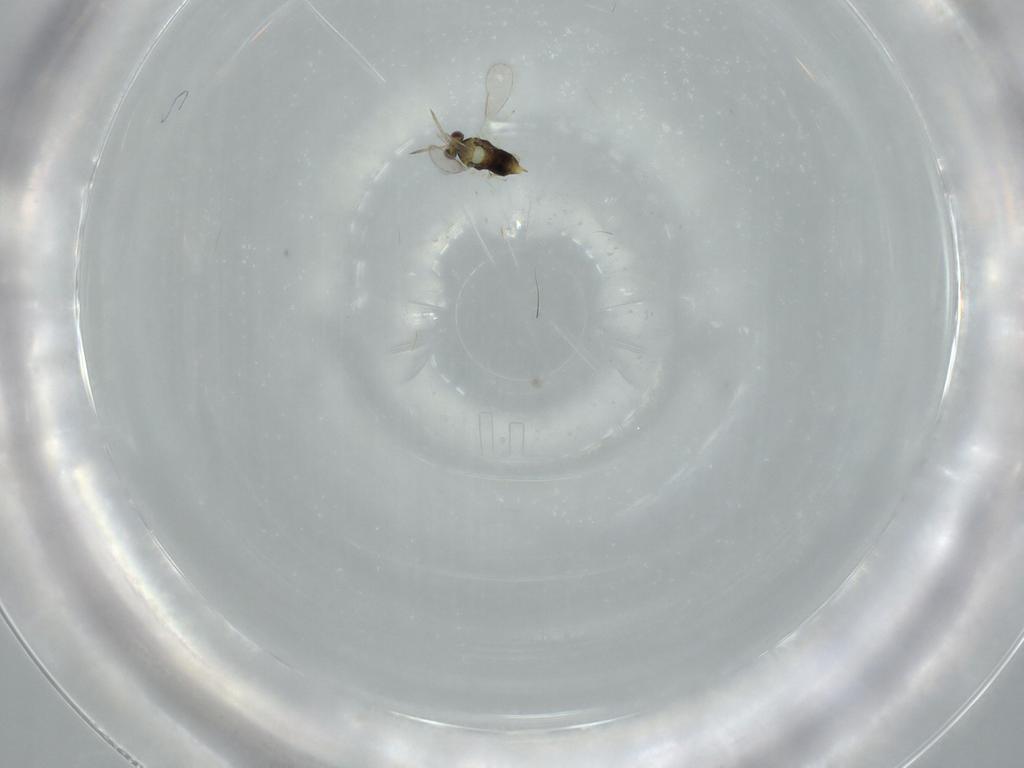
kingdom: Animalia
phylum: Arthropoda
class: Insecta
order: Hymenoptera
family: Aphelinidae
